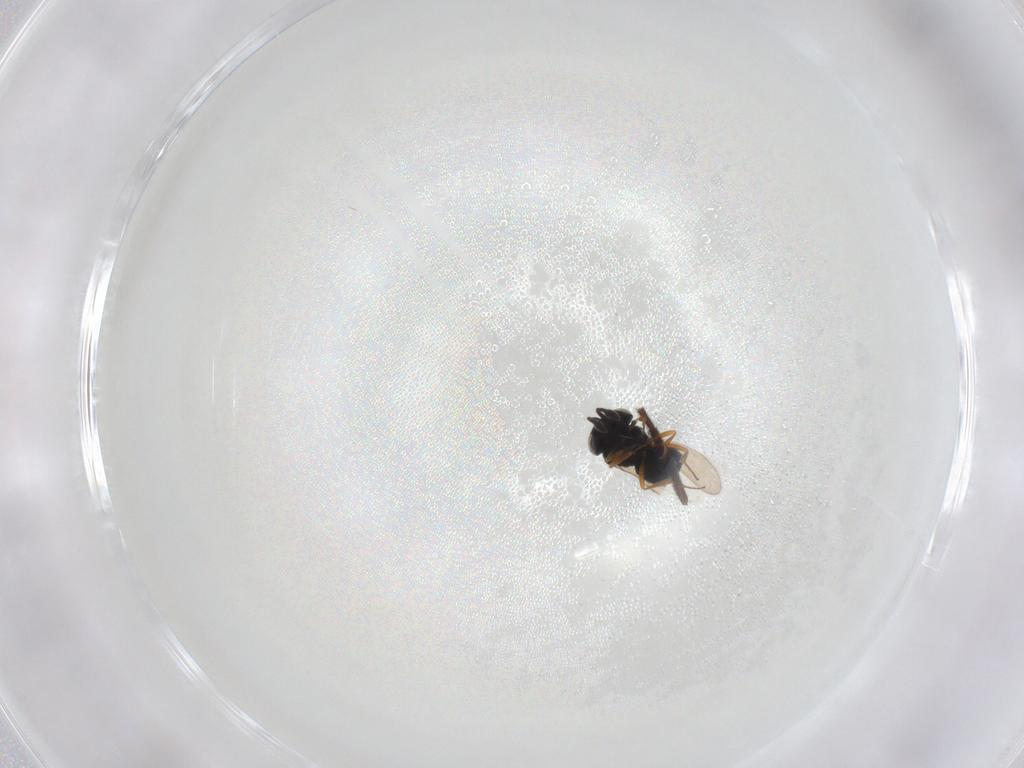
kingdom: Animalia
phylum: Arthropoda
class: Insecta
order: Hymenoptera
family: Scelionidae
